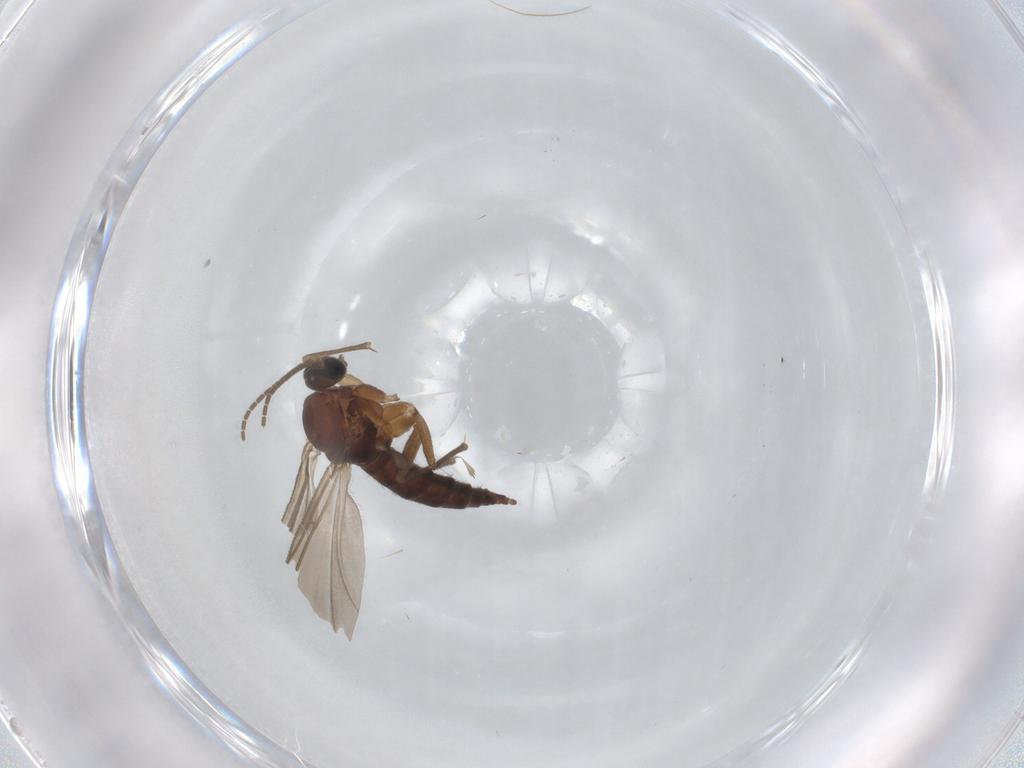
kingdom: Animalia
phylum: Arthropoda
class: Insecta
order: Diptera
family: Sciaridae
